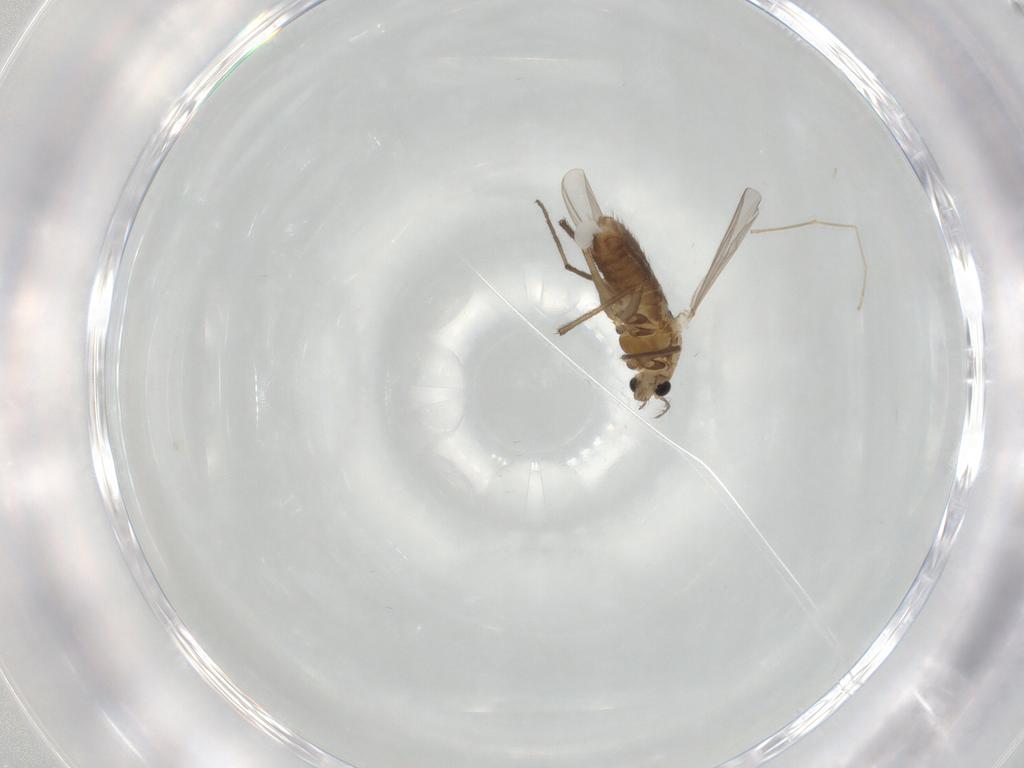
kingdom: Animalia
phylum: Arthropoda
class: Insecta
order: Diptera
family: Chironomidae
